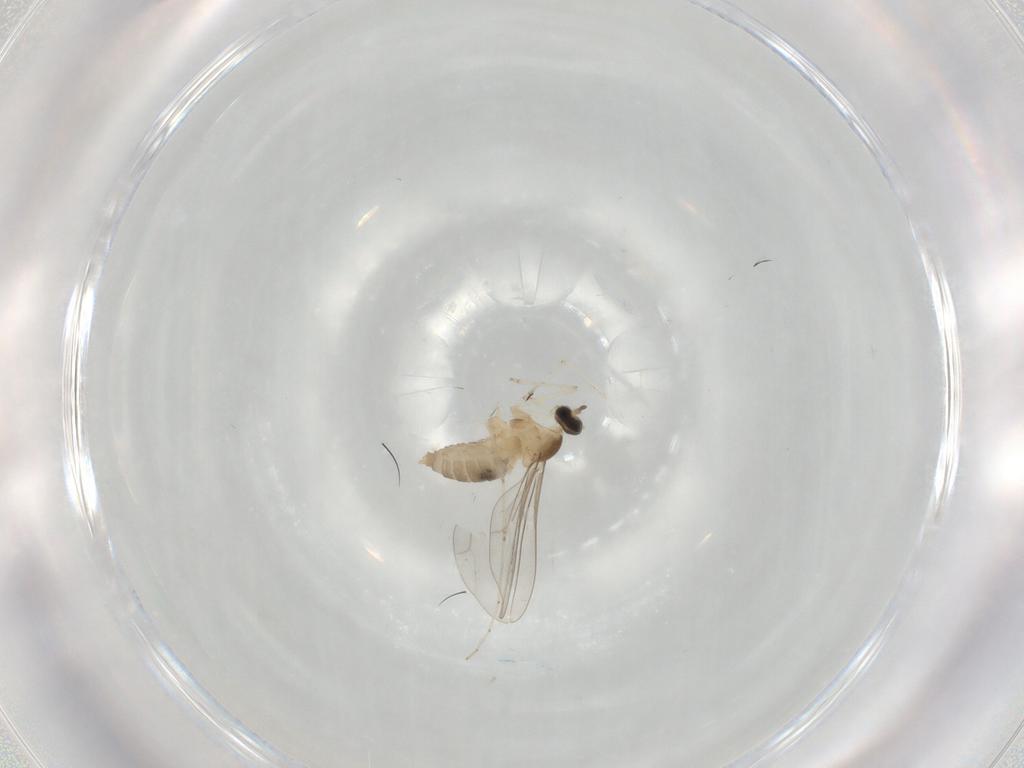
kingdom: Animalia
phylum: Arthropoda
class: Insecta
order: Diptera
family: Cecidomyiidae
